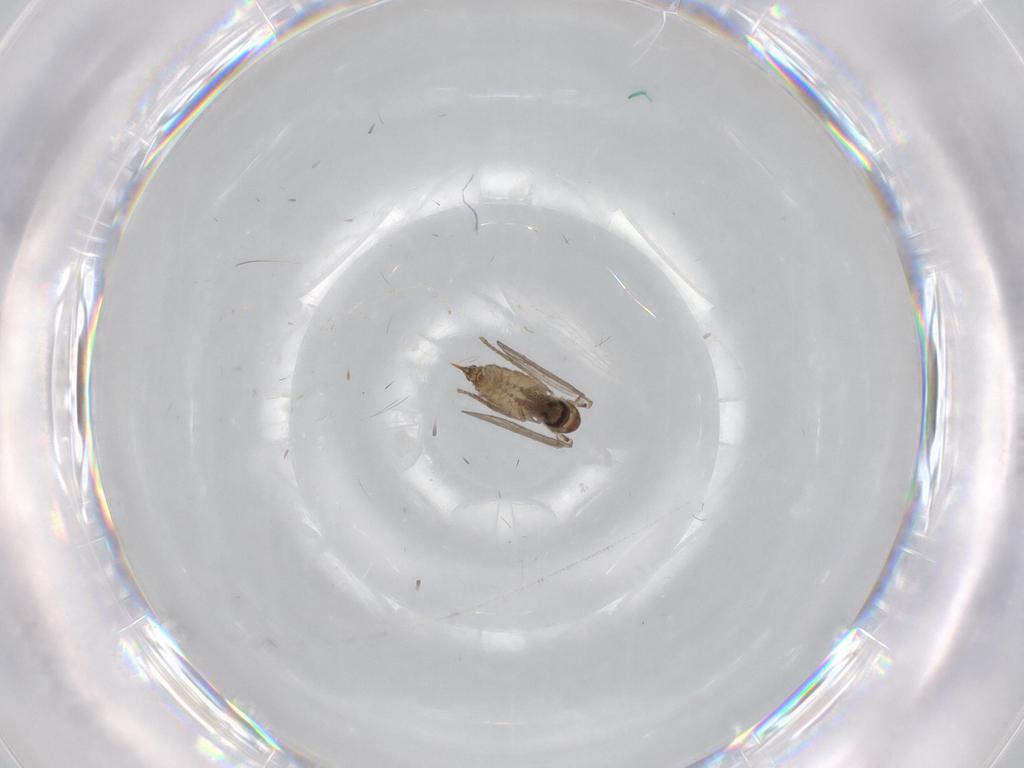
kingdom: Animalia
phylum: Arthropoda
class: Insecta
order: Diptera
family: Psychodidae
